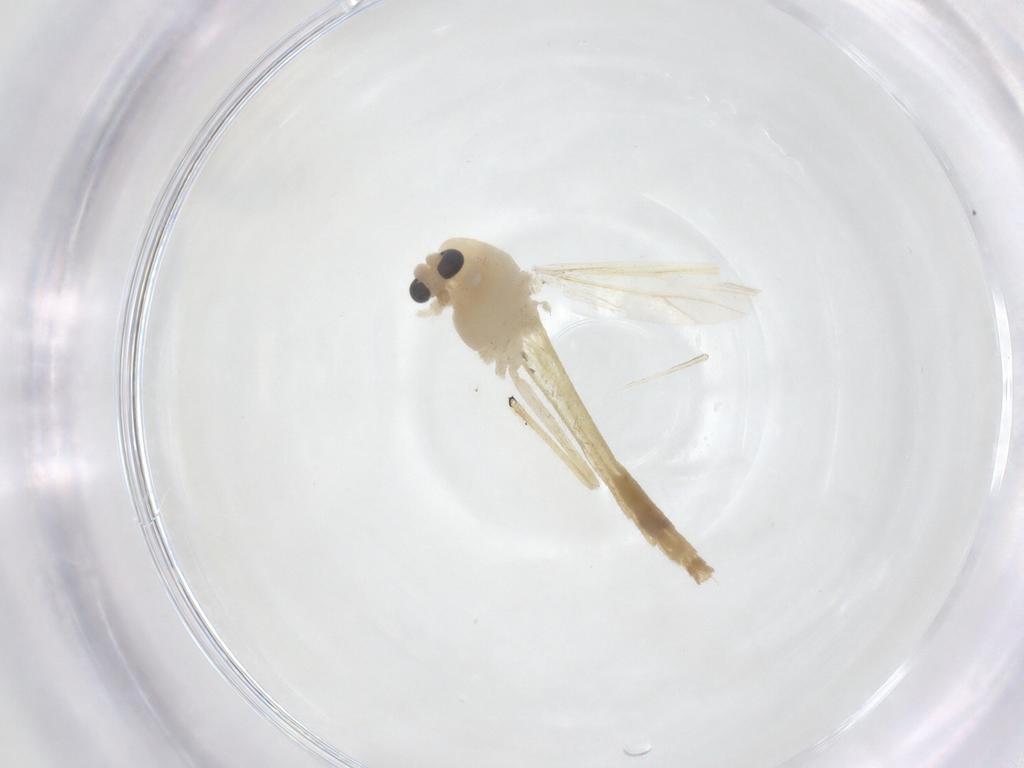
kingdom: Animalia
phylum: Arthropoda
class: Insecta
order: Diptera
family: Chironomidae
